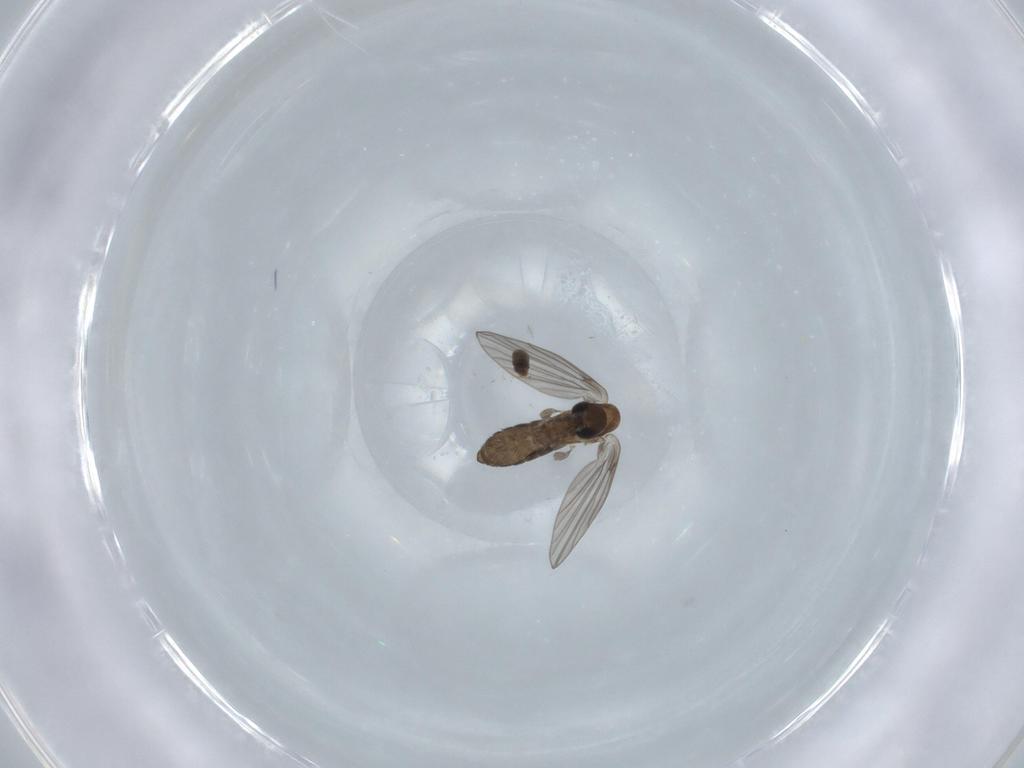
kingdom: Animalia
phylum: Arthropoda
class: Insecta
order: Diptera
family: Psychodidae
